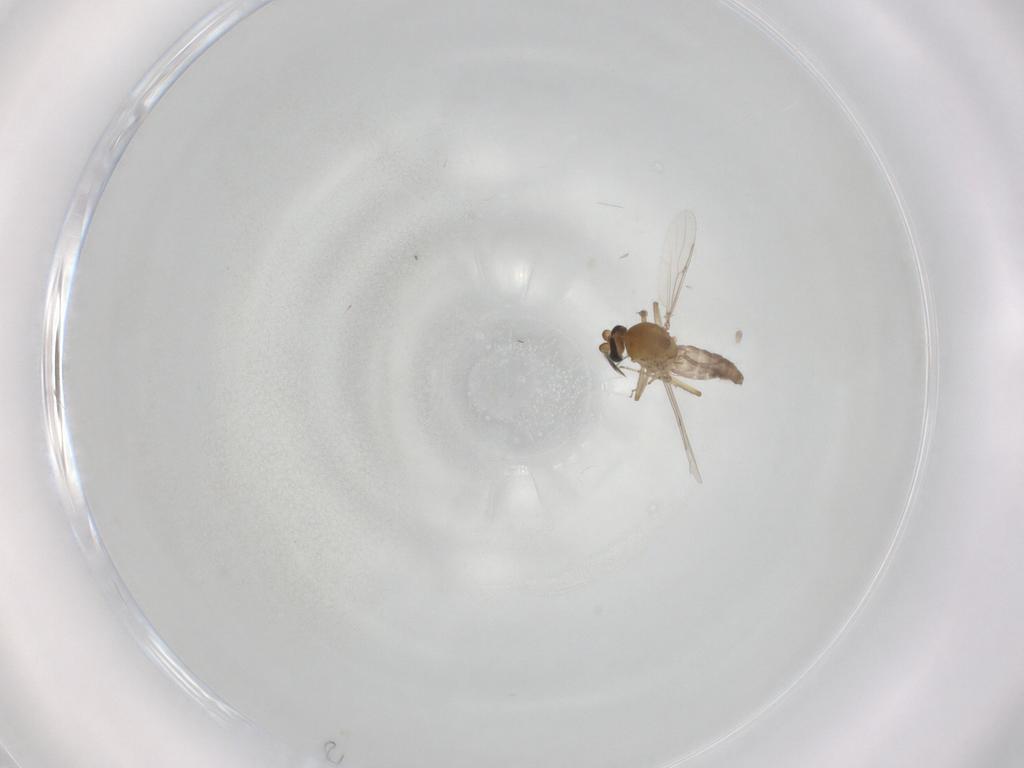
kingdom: Animalia
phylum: Arthropoda
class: Insecta
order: Diptera
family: Ceratopogonidae
